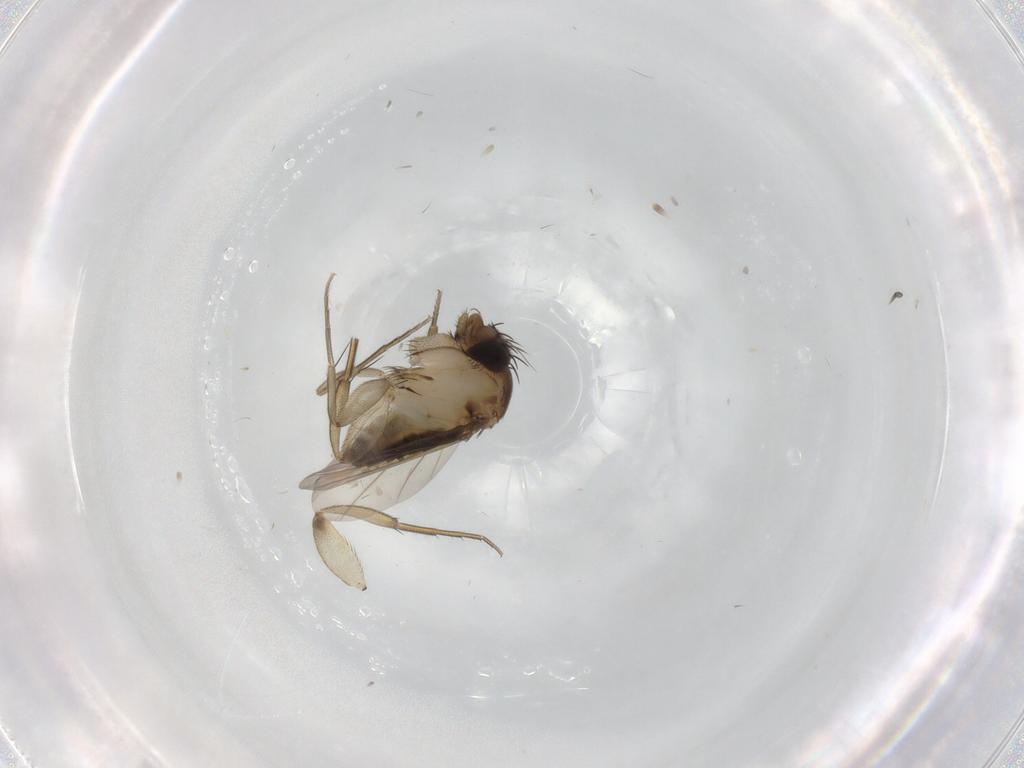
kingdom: Animalia
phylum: Arthropoda
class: Insecta
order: Diptera
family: Phoridae
